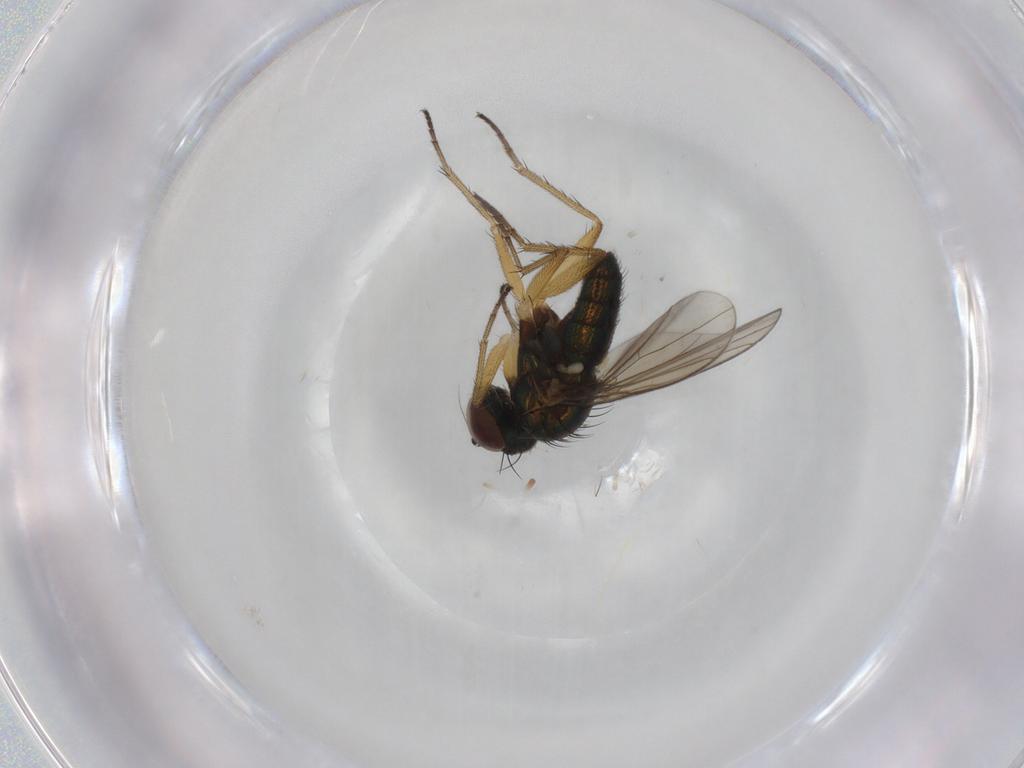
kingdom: Animalia
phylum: Arthropoda
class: Insecta
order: Diptera
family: Hybotidae
